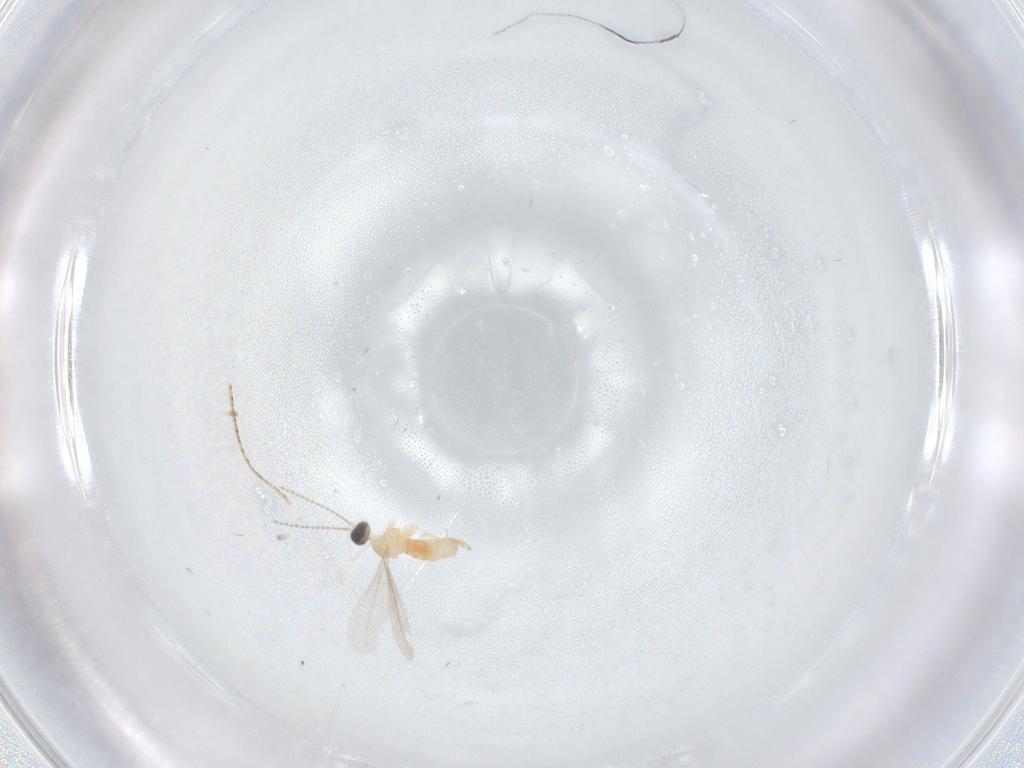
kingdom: Animalia
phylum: Arthropoda
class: Insecta
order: Diptera
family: Cecidomyiidae
